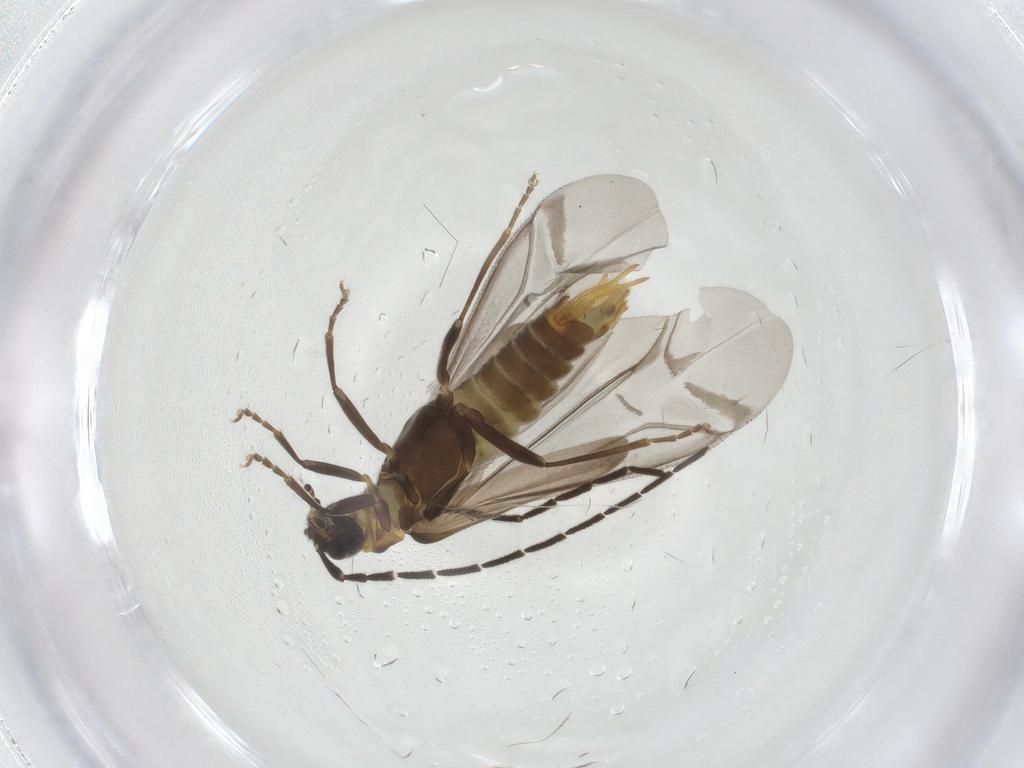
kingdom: Animalia
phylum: Arthropoda
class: Insecta
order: Coleoptera
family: Cantharidae
